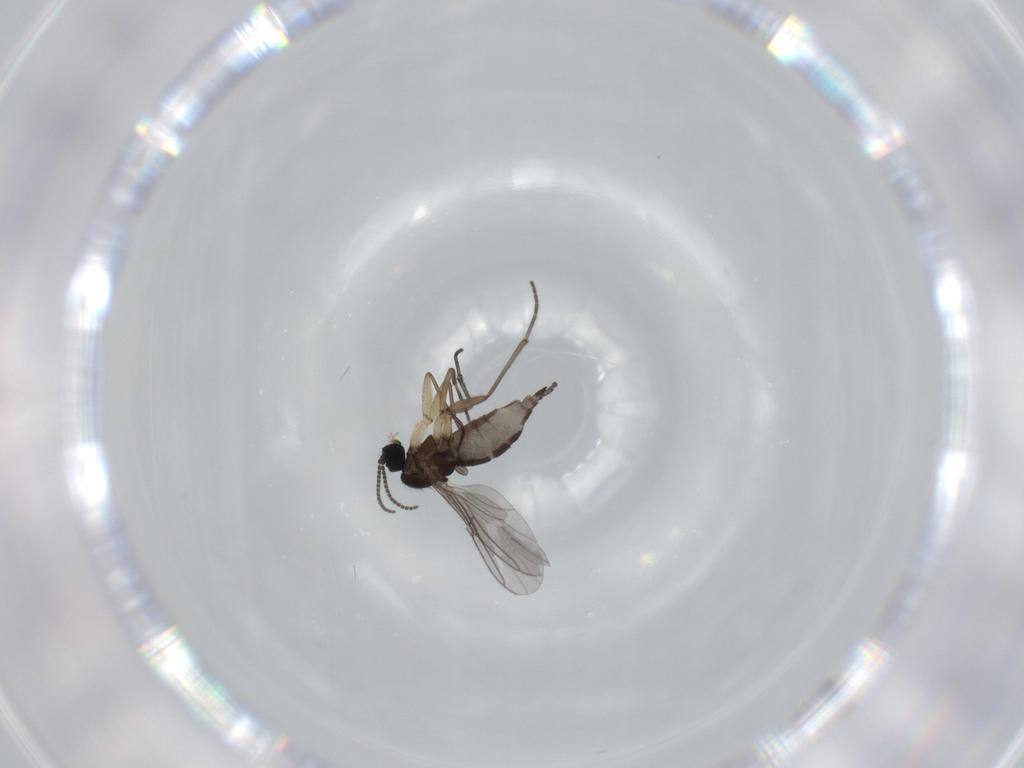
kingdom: Animalia
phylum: Arthropoda
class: Insecta
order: Diptera
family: Sciaridae
